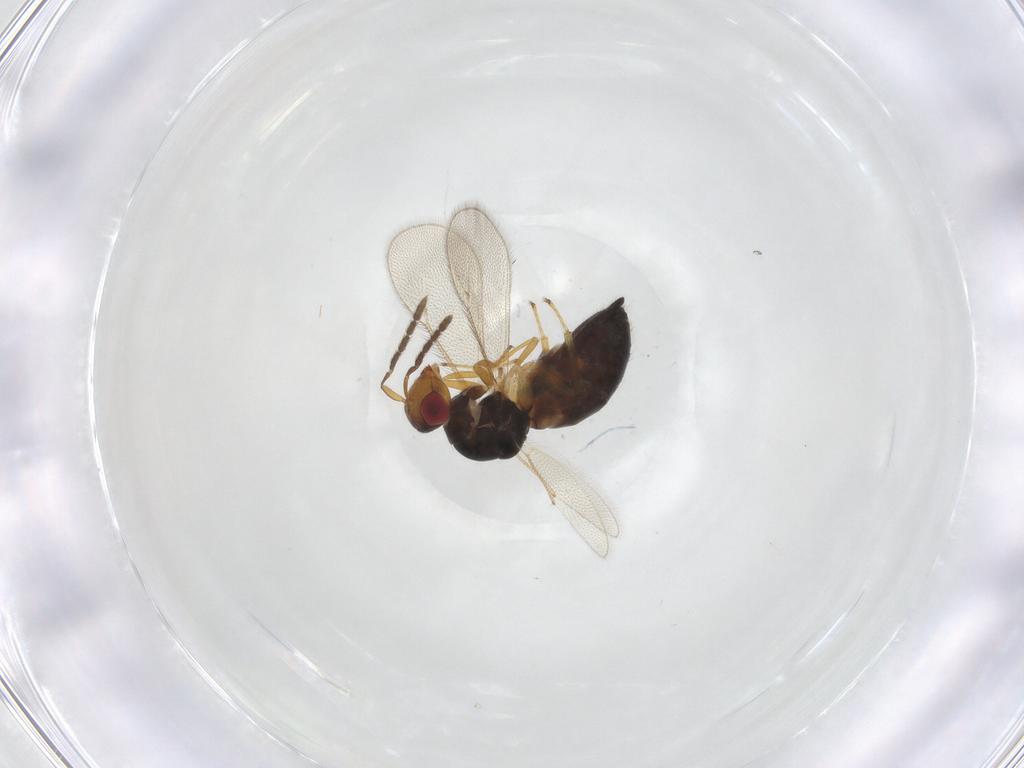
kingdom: Animalia
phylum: Arthropoda
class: Insecta
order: Hymenoptera
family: Eulophidae
